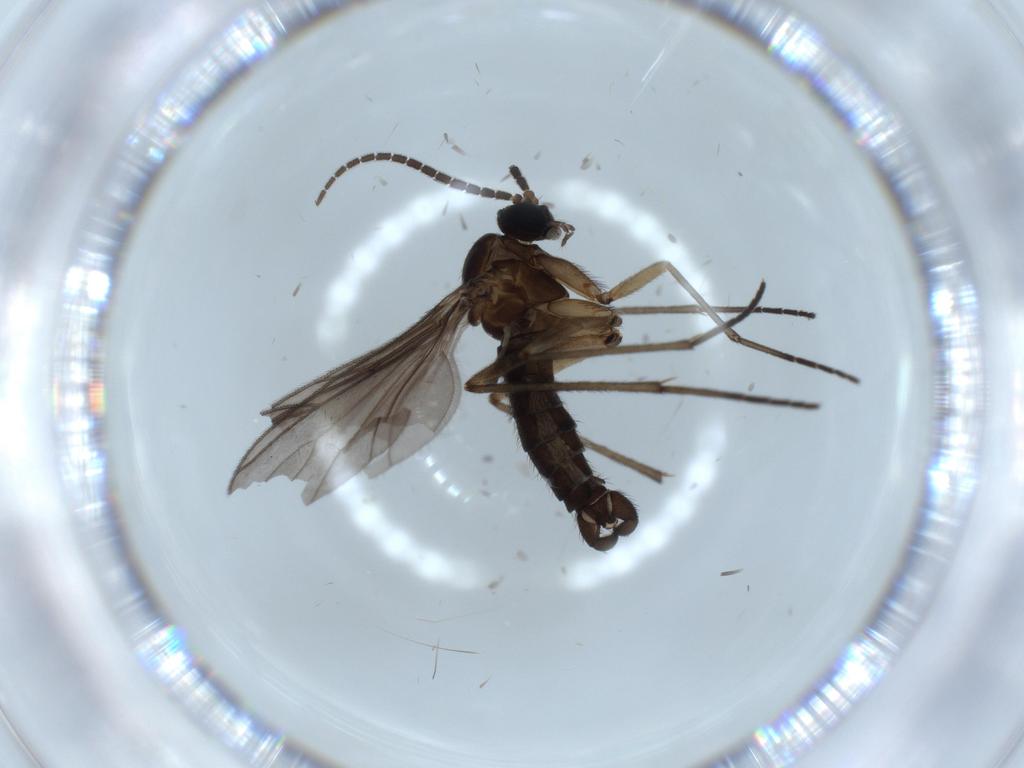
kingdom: Animalia
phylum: Arthropoda
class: Insecta
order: Diptera
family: Sciaridae
